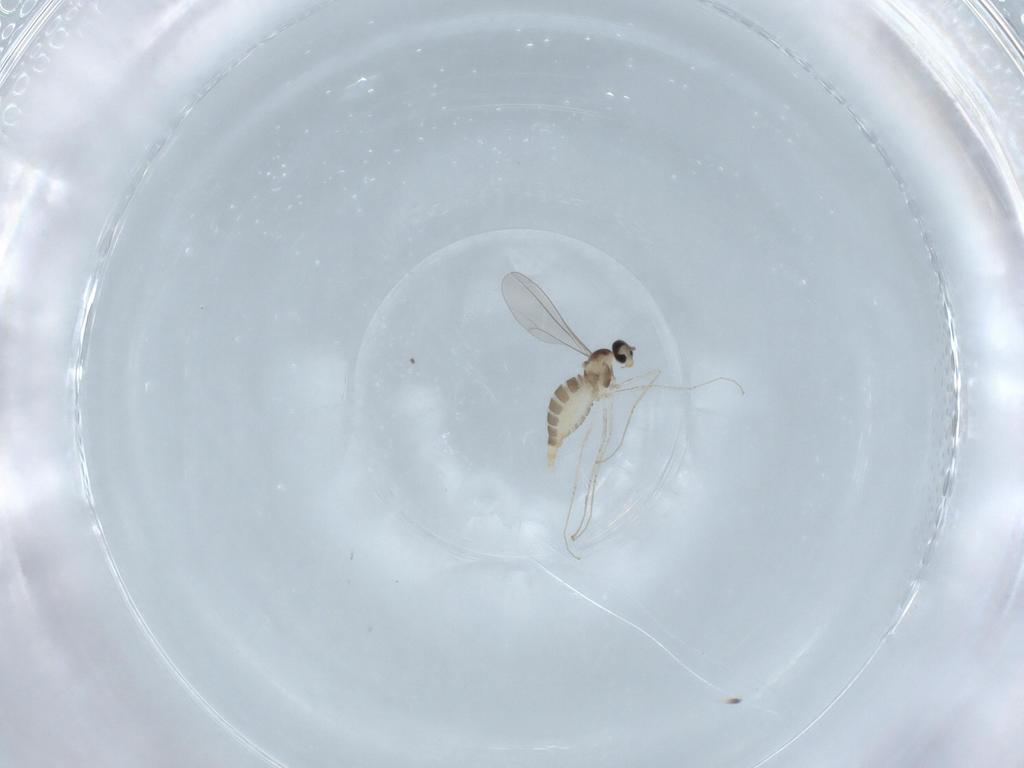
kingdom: Animalia
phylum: Arthropoda
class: Insecta
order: Diptera
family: Cecidomyiidae
